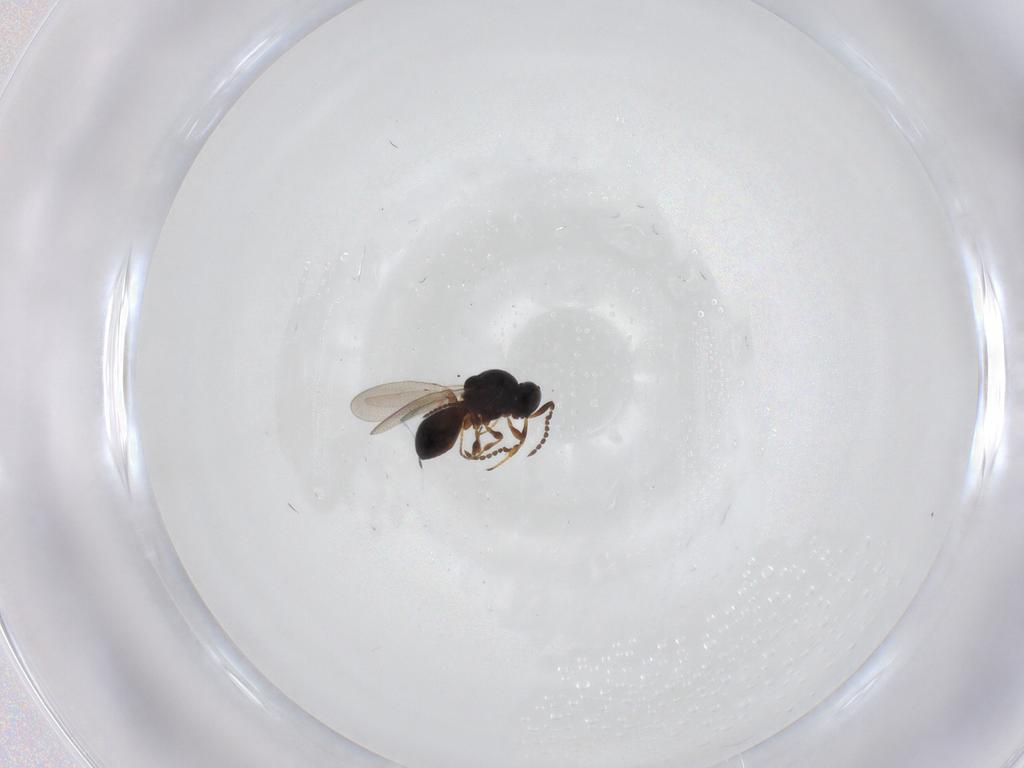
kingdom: Animalia
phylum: Arthropoda
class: Insecta
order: Hymenoptera
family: Platygastridae
